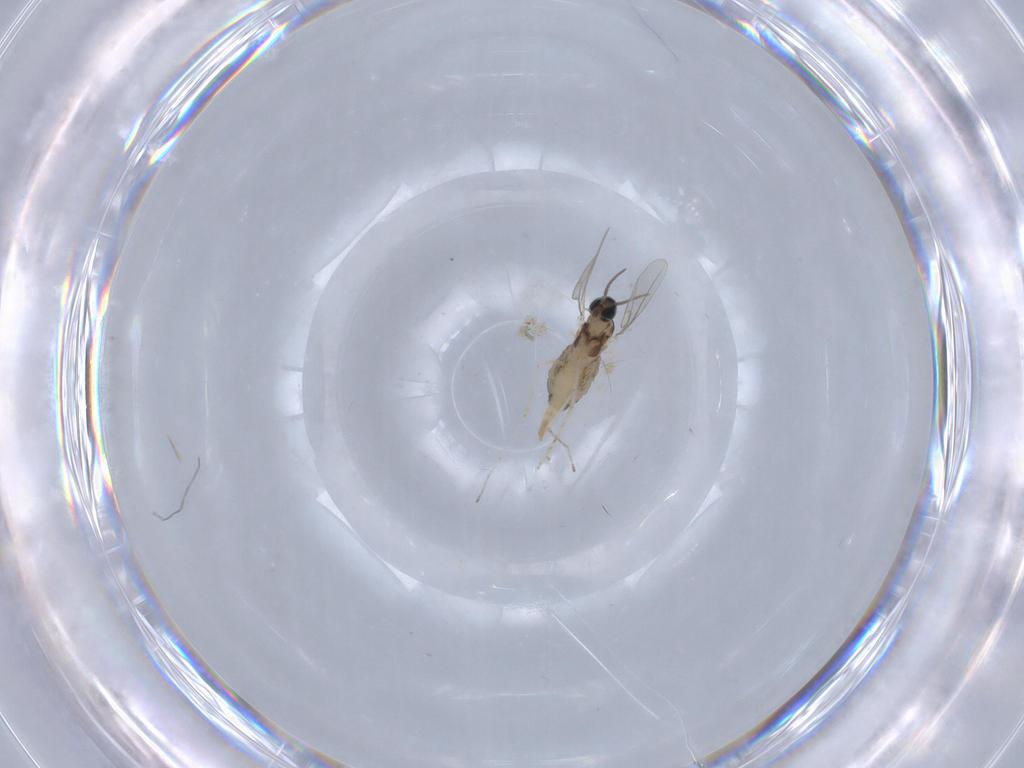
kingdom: Animalia
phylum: Arthropoda
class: Insecta
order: Diptera
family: Cecidomyiidae
